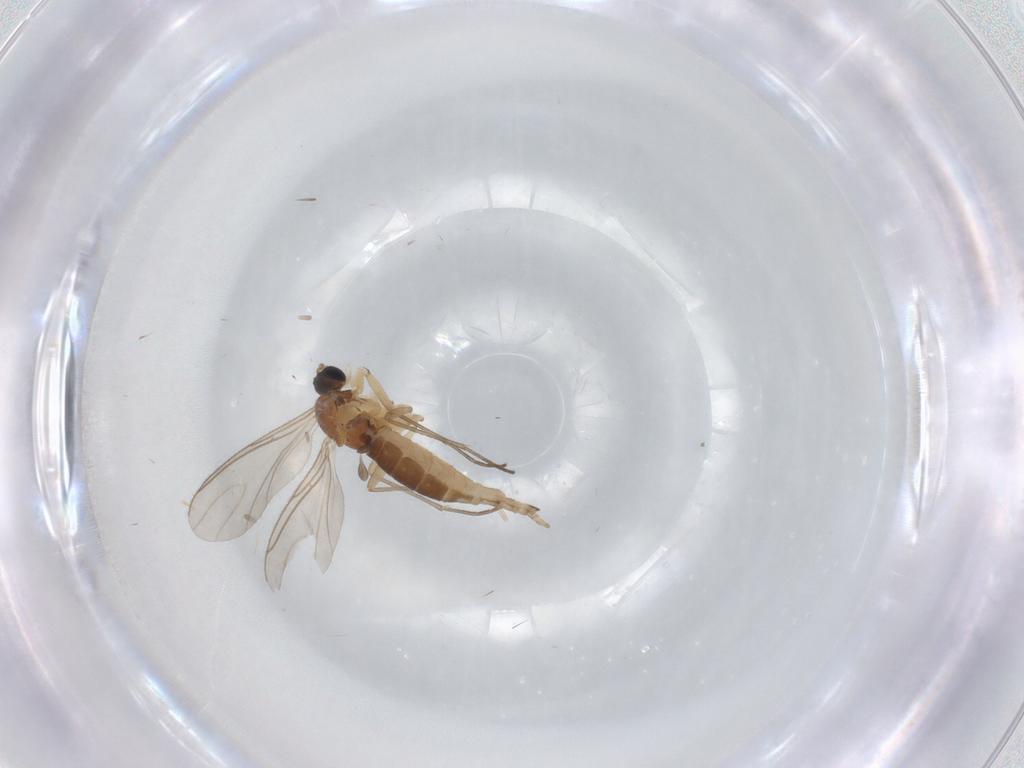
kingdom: Animalia
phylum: Arthropoda
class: Insecta
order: Diptera
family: Sciaridae
